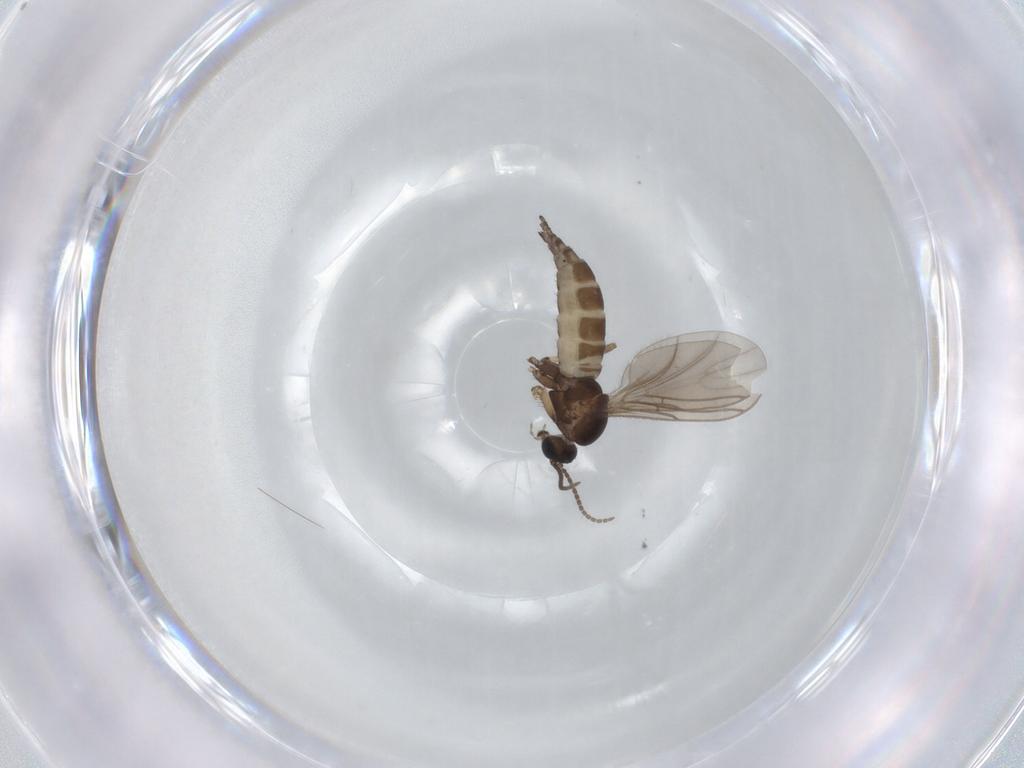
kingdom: Animalia
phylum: Arthropoda
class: Insecta
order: Diptera
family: Sciaridae
